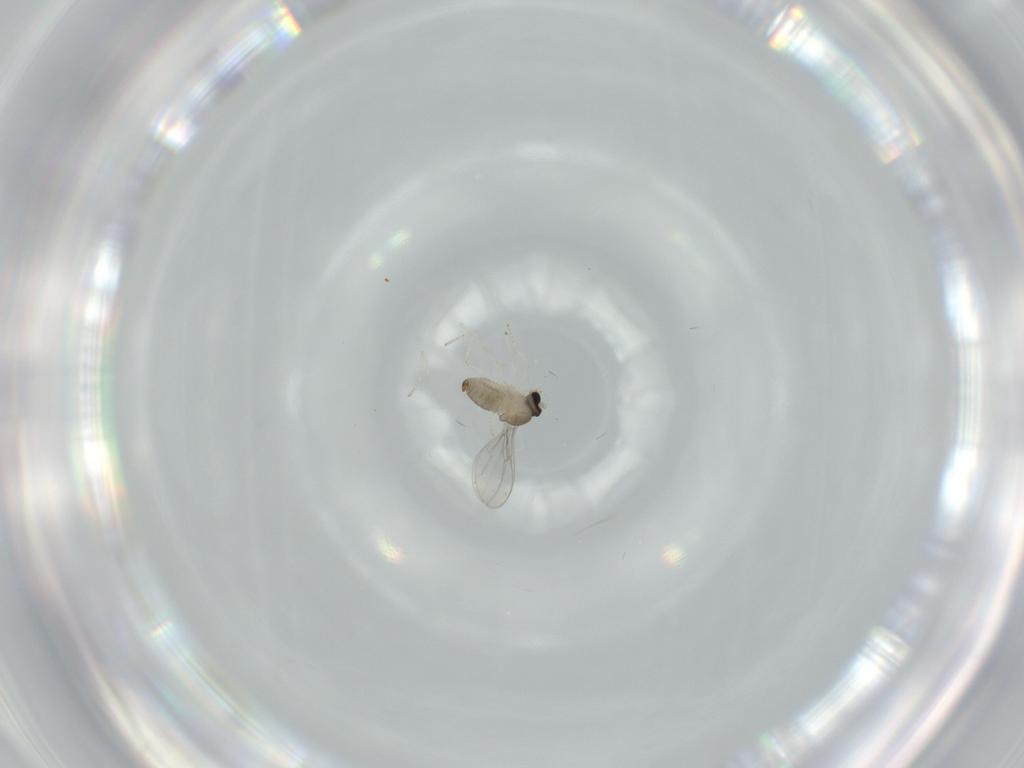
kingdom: Animalia
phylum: Arthropoda
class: Insecta
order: Diptera
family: Cecidomyiidae
